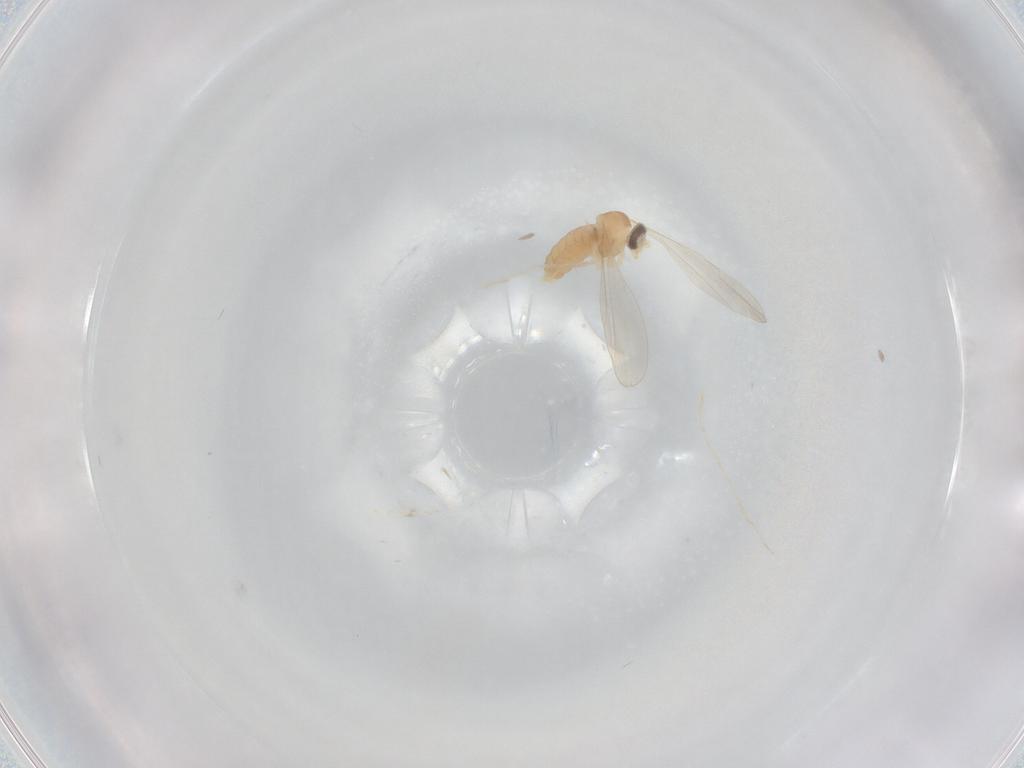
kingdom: Animalia
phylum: Arthropoda
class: Insecta
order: Diptera
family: Cecidomyiidae
